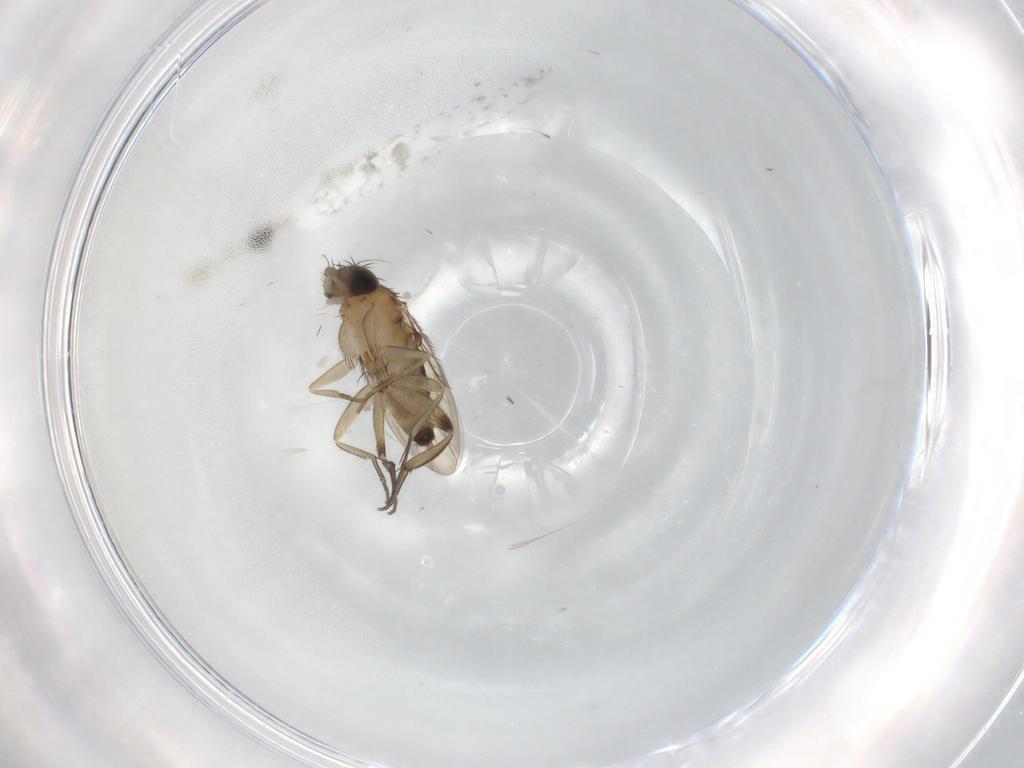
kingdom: Animalia
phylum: Arthropoda
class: Insecta
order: Diptera
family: Phoridae
